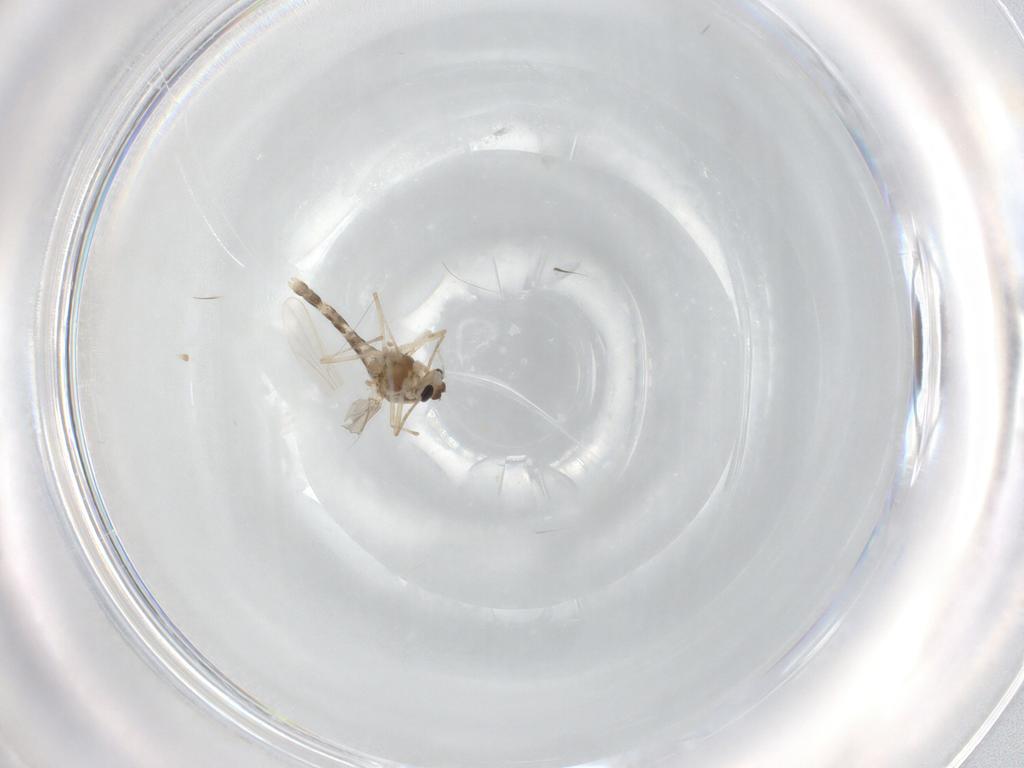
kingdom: Animalia
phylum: Arthropoda
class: Insecta
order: Diptera
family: Chironomidae
